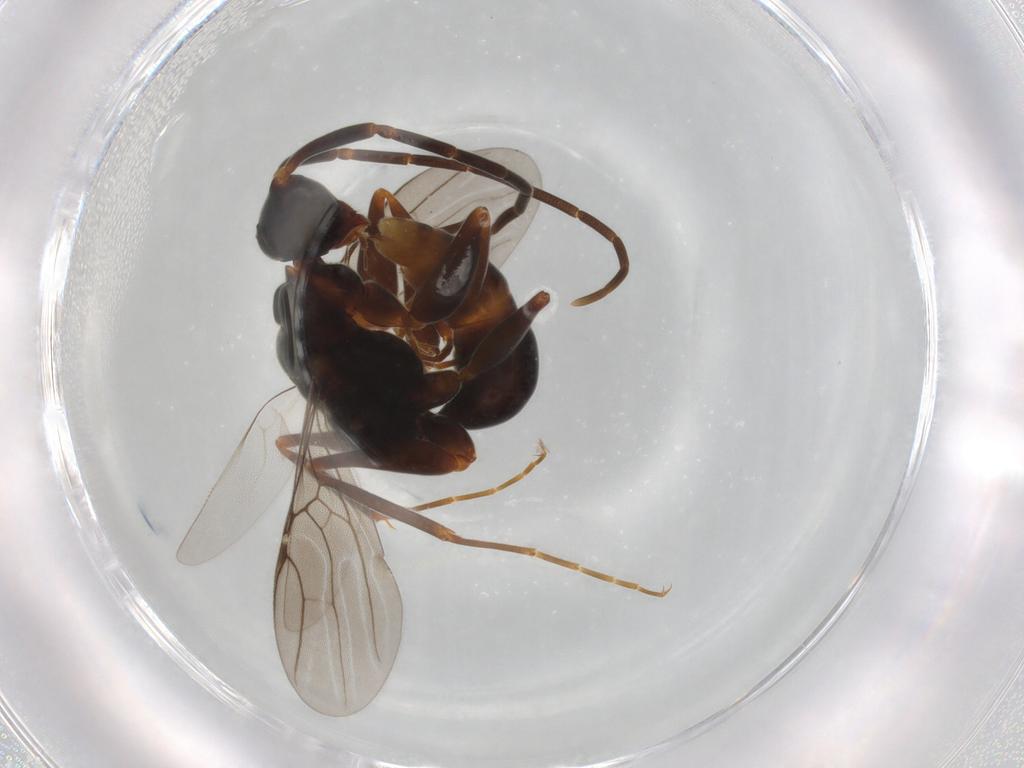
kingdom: Animalia
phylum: Arthropoda
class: Insecta
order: Hymenoptera
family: Embolemidae
